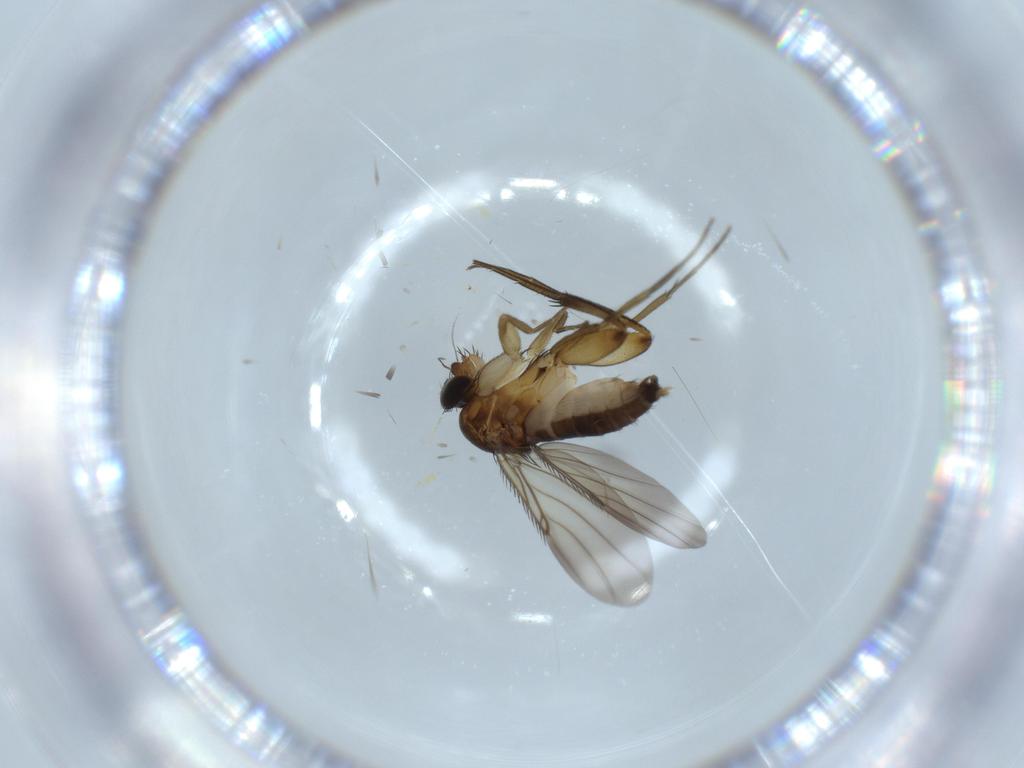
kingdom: Animalia
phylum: Arthropoda
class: Insecta
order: Diptera
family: Phoridae
